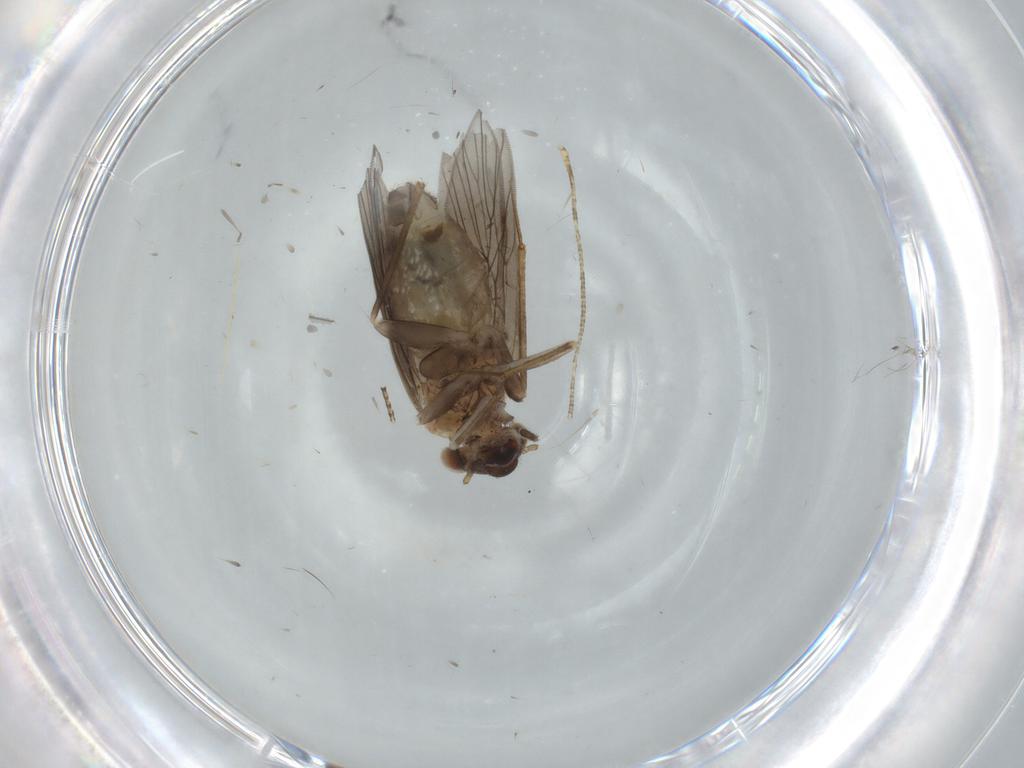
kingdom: Animalia
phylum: Arthropoda
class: Insecta
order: Psocodea
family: Lepidopsocidae
